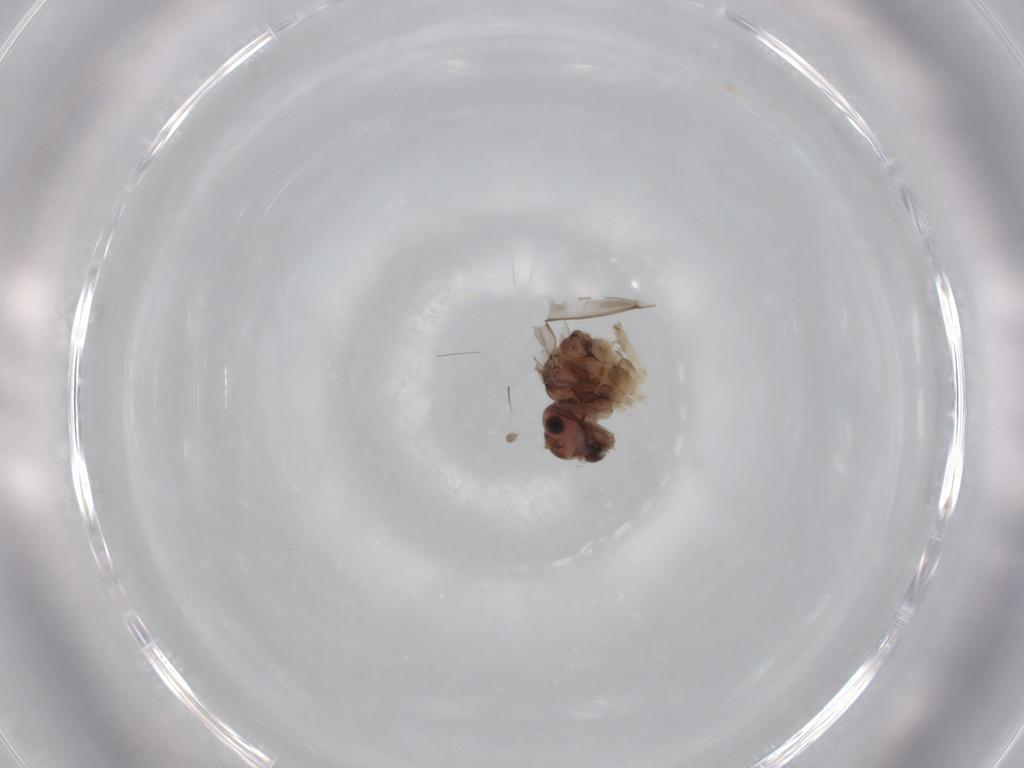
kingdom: Animalia
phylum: Arthropoda
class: Insecta
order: Psocodea
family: Peripsocidae
